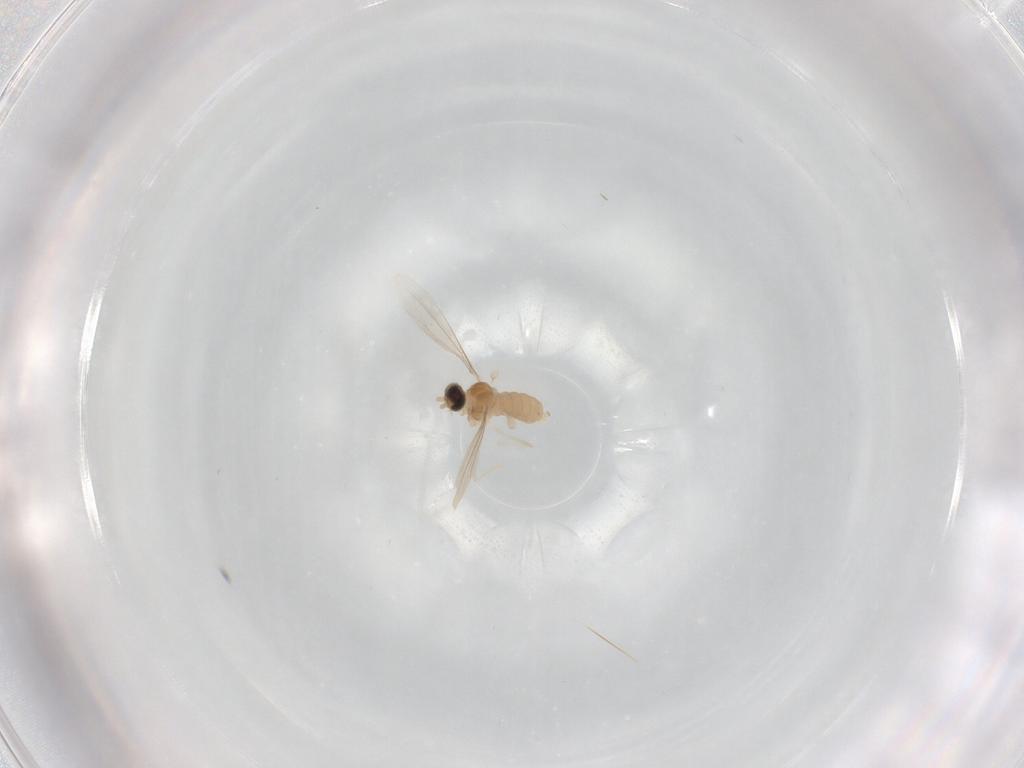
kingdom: Animalia
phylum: Arthropoda
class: Insecta
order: Diptera
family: Cecidomyiidae
